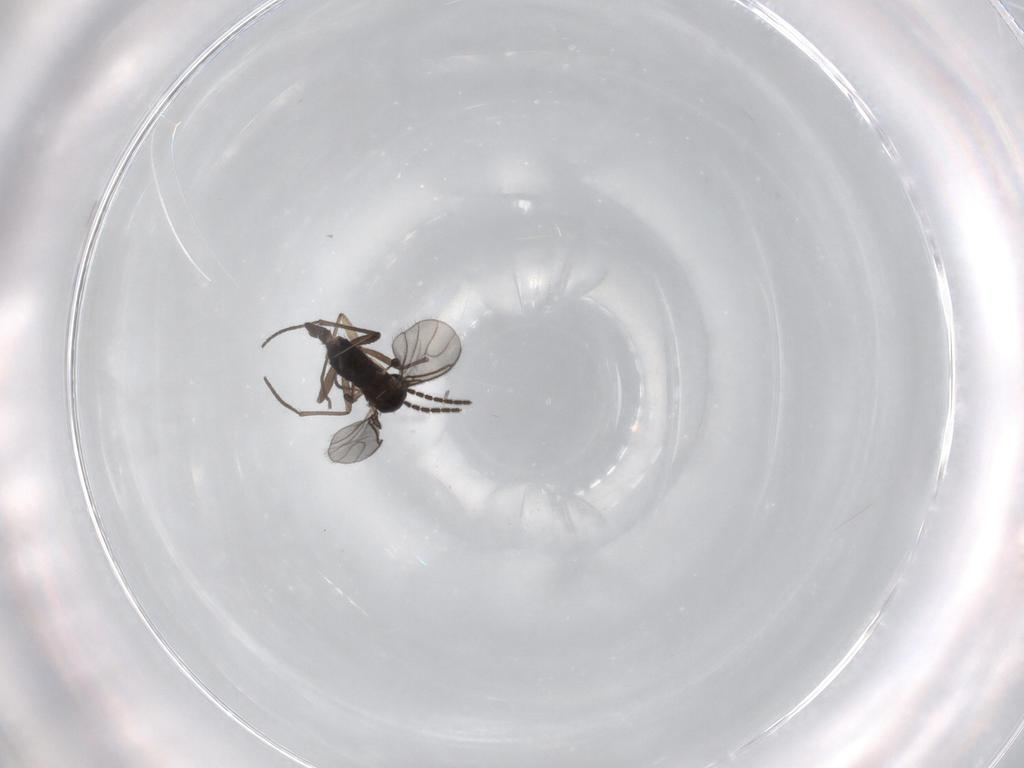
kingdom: Animalia
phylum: Arthropoda
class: Insecta
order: Diptera
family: Sciaridae
